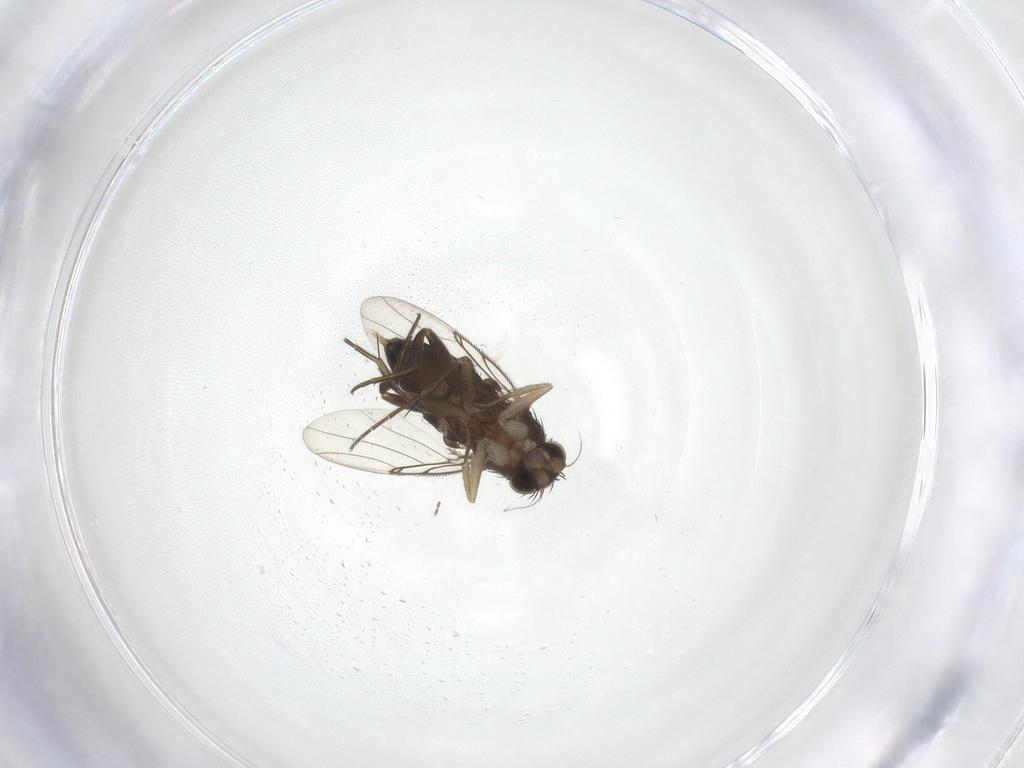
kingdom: Animalia
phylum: Arthropoda
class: Insecta
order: Diptera
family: Phoridae
